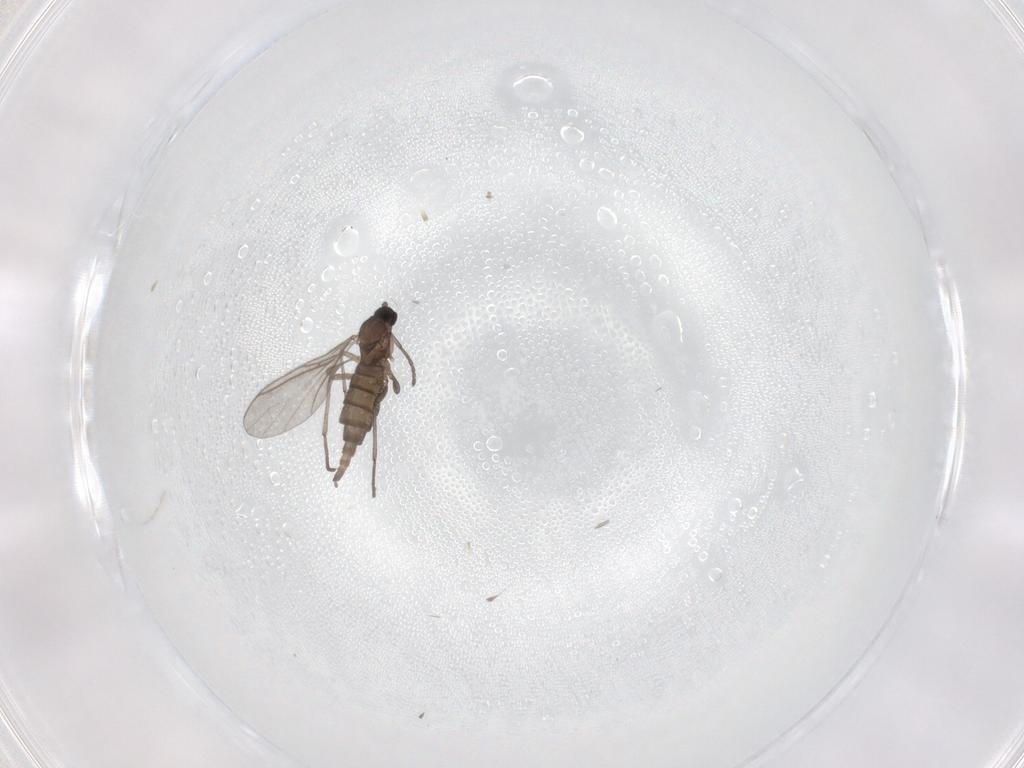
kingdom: Animalia
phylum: Arthropoda
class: Insecta
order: Diptera
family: Sciaridae
